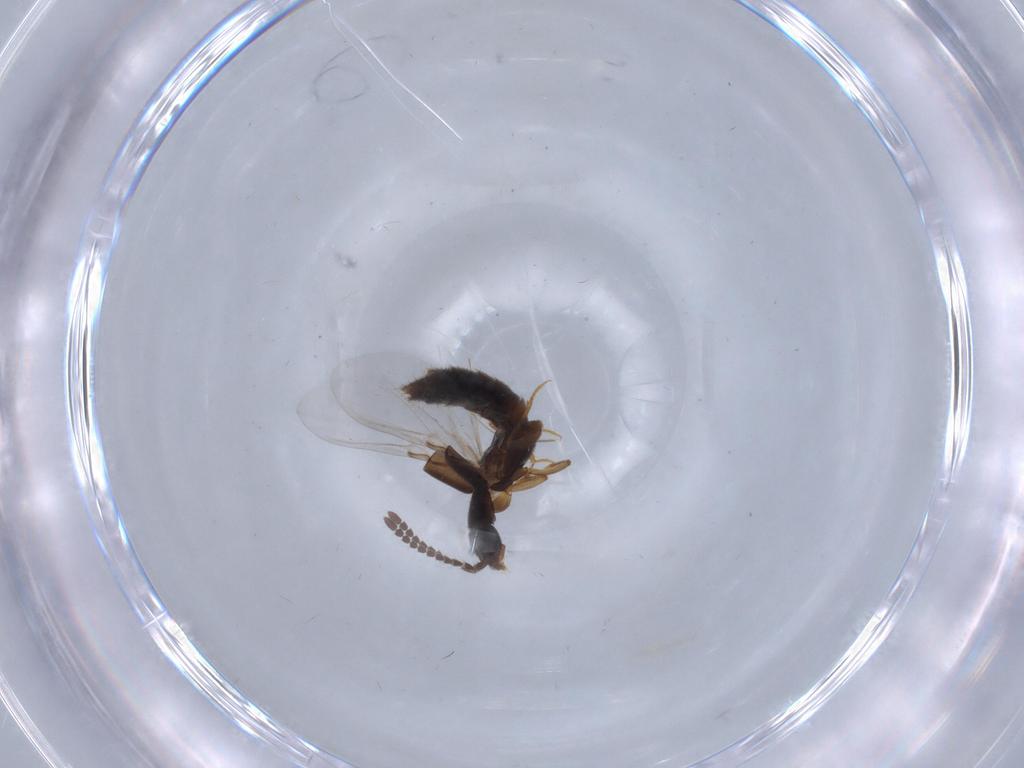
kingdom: Animalia
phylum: Arthropoda
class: Insecta
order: Coleoptera
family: Staphylinidae
